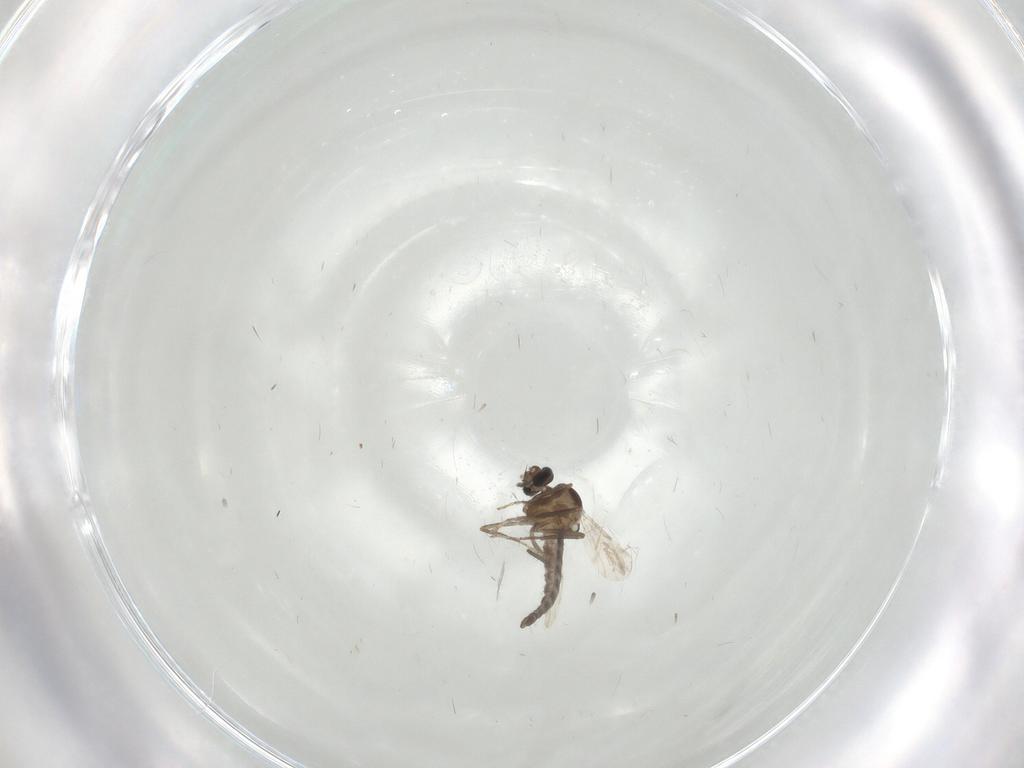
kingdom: Animalia
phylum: Arthropoda
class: Insecta
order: Diptera
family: Ceratopogonidae
